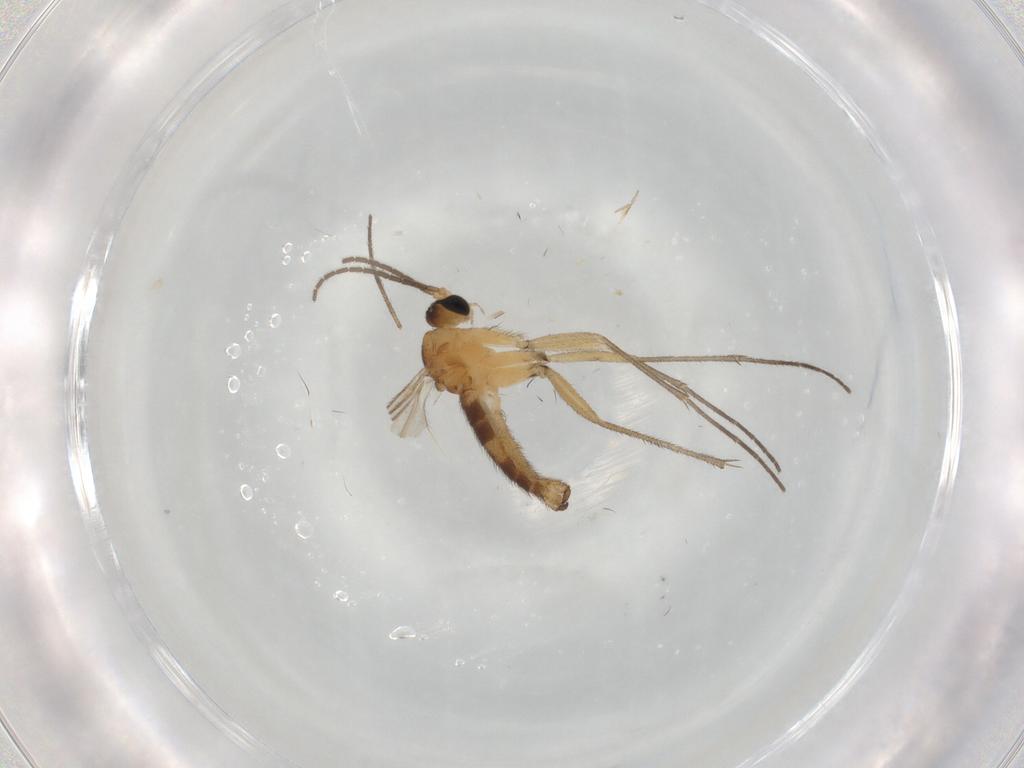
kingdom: Animalia
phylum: Arthropoda
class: Insecta
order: Diptera
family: Sciaridae
